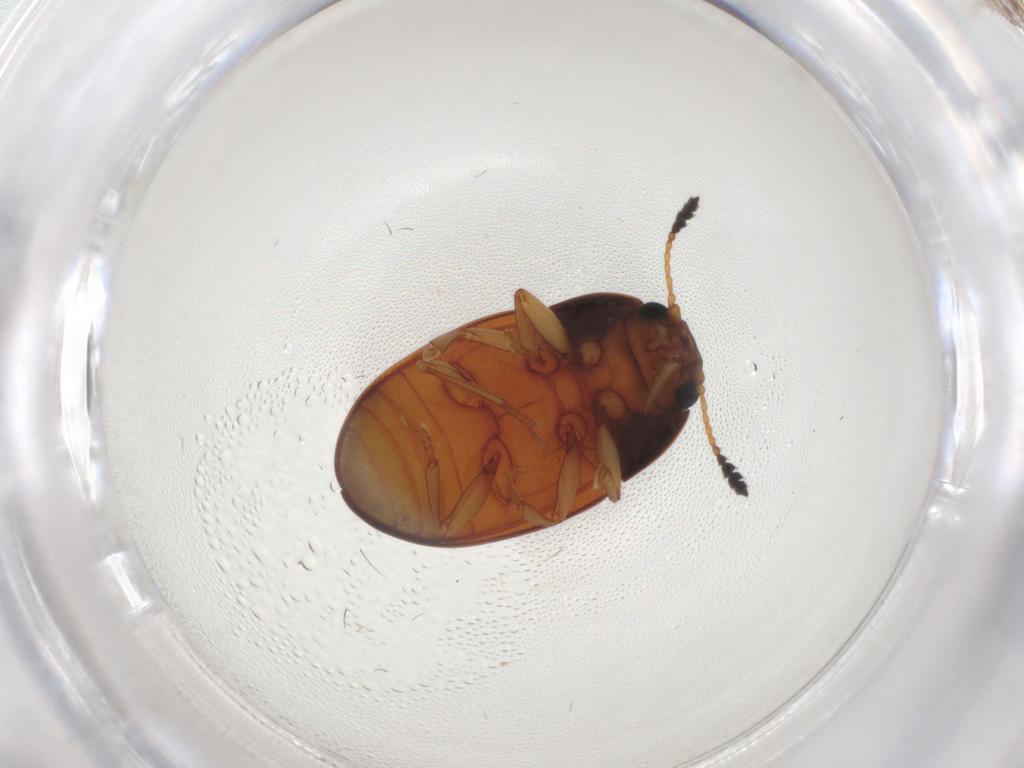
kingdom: Animalia
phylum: Arthropoda
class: Insecta
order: Coleoptera
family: Erotylidae
